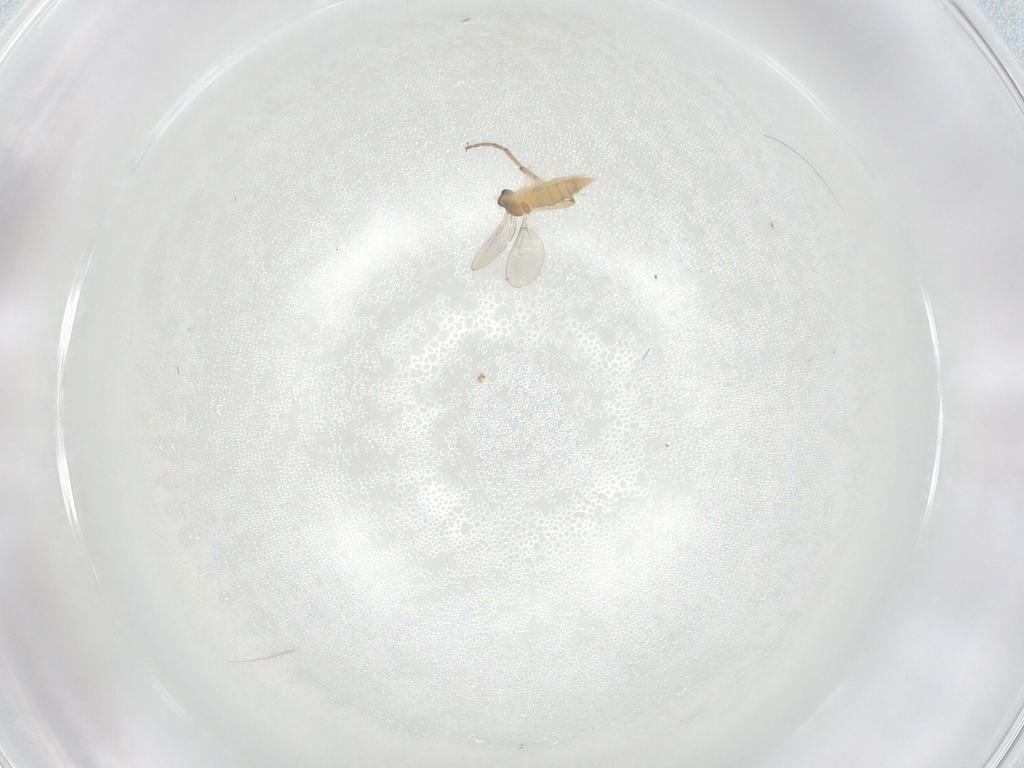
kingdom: Animalia
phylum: Arthropoda
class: Insecta
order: Diptera
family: Cecidomyiidae
